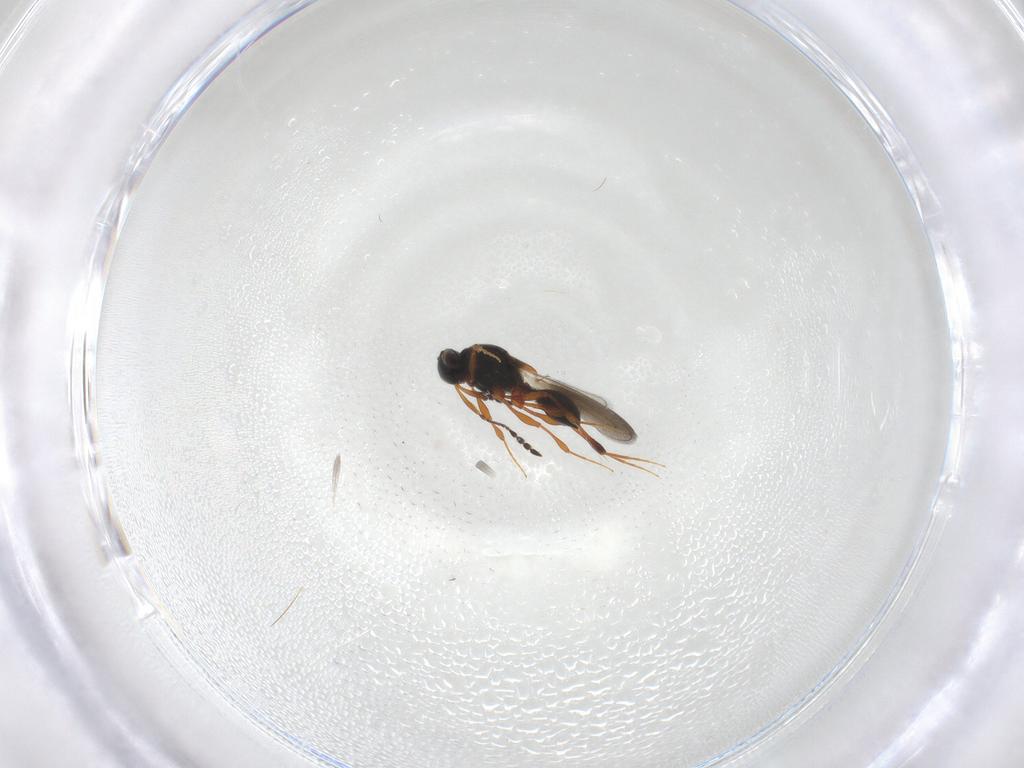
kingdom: Animalia
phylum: Arthropoda
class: Insecta
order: Hymenoptera
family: Platygastridae
